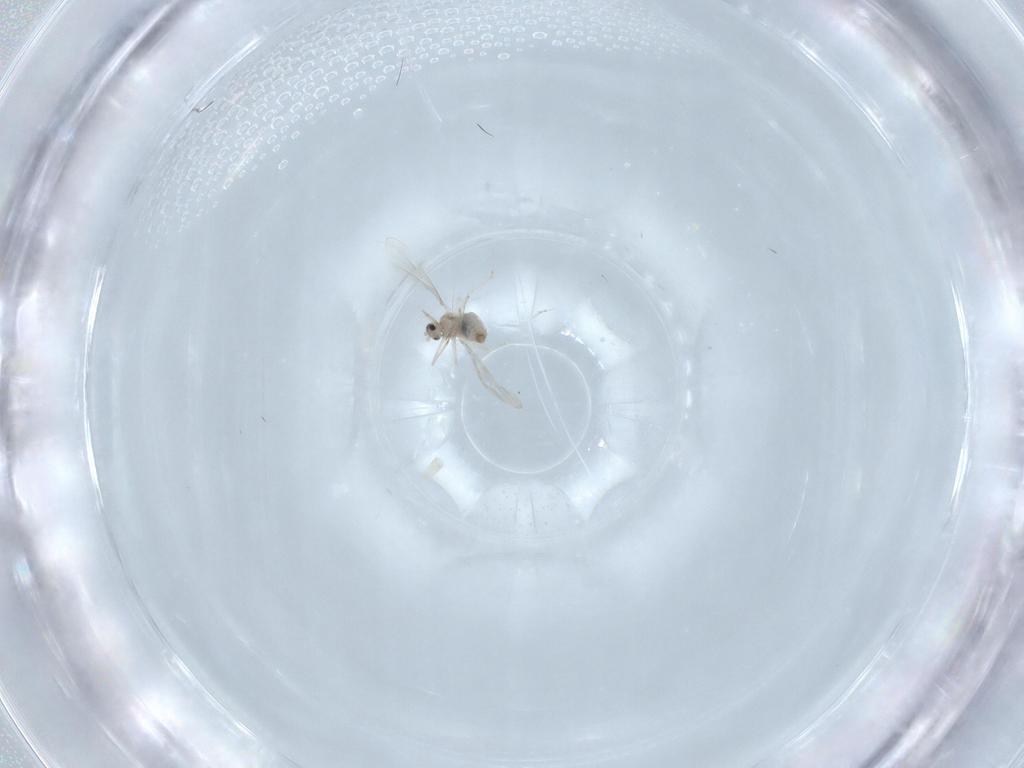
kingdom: Animalia
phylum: Arthropoda
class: Insecta
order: Diptera
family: Cecidomyiidae
